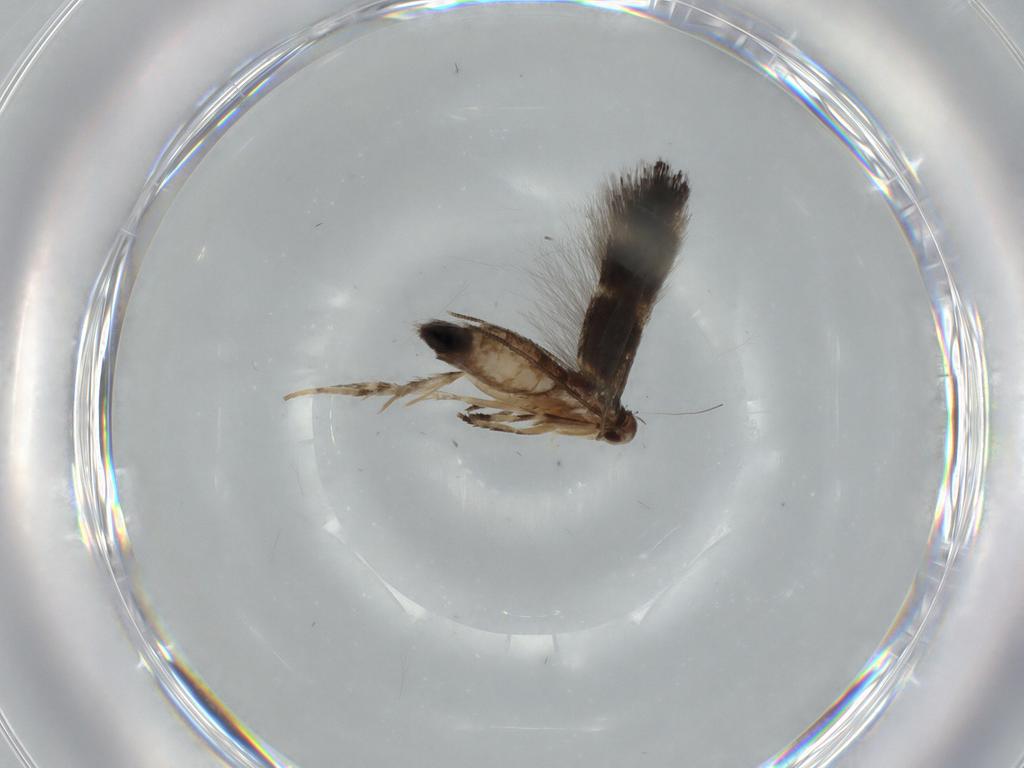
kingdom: Animalia
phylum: Arthropoda
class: Insecta
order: Lepidoptera
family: Cosmopterigidae
